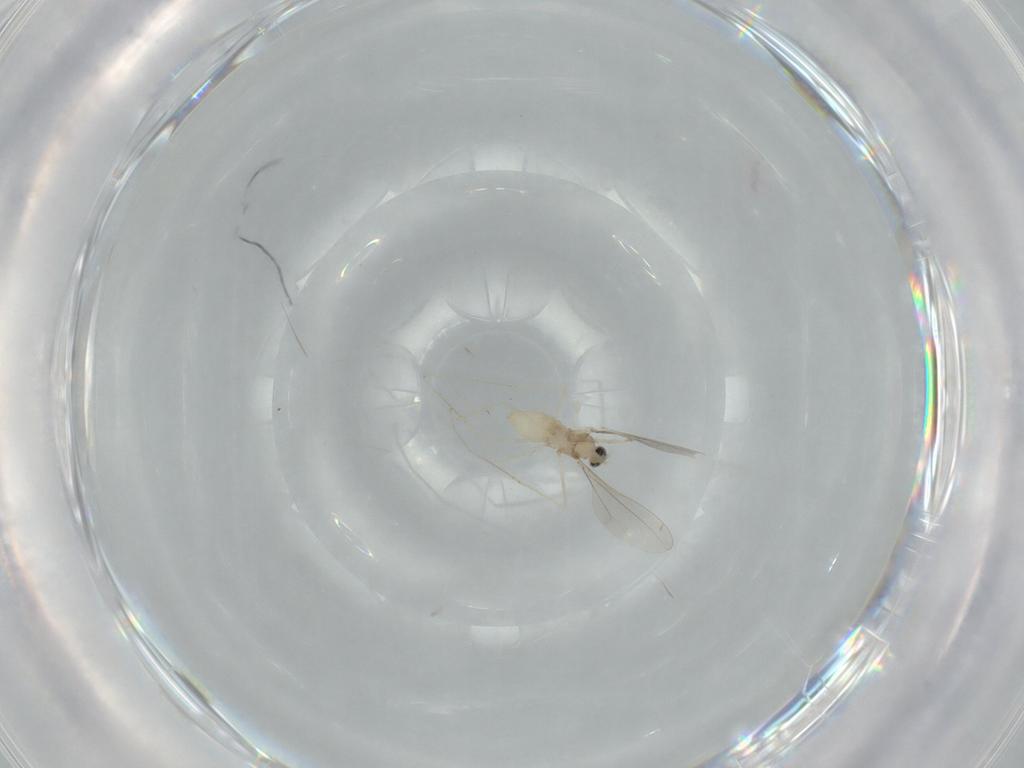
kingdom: Animalia
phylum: Arthropoda
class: Insecta
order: Diptera
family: Cecidomyiidae
